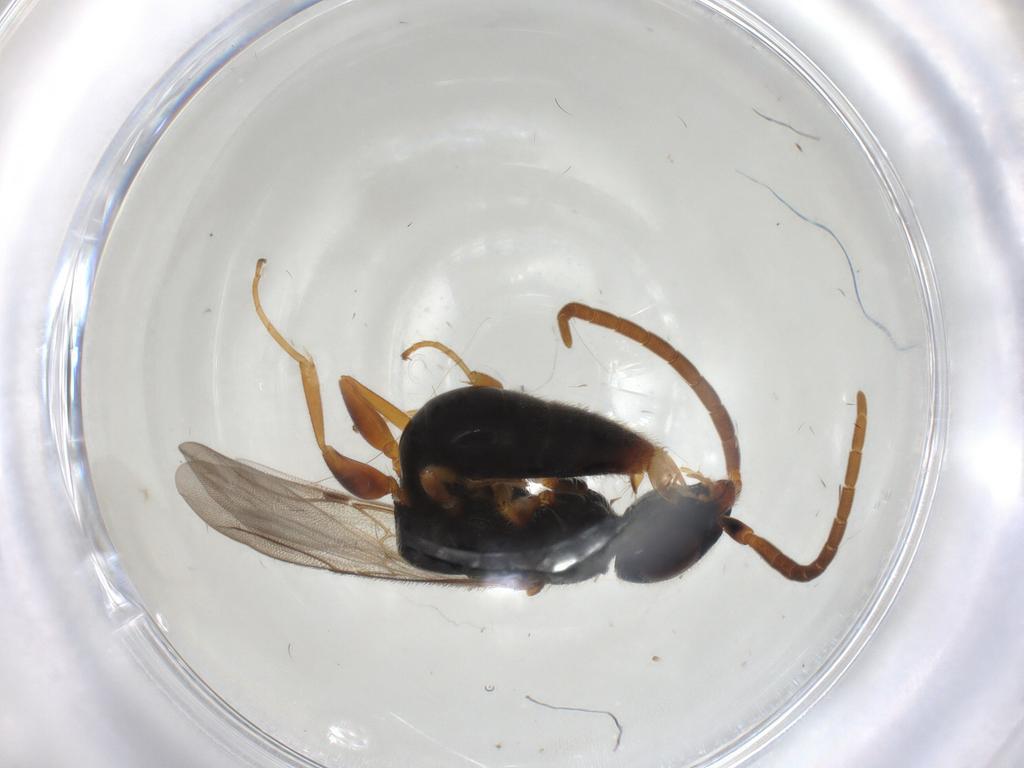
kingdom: Animalia
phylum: Arthropoda
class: Insecta
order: Hymenoptera
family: Bethylidae
